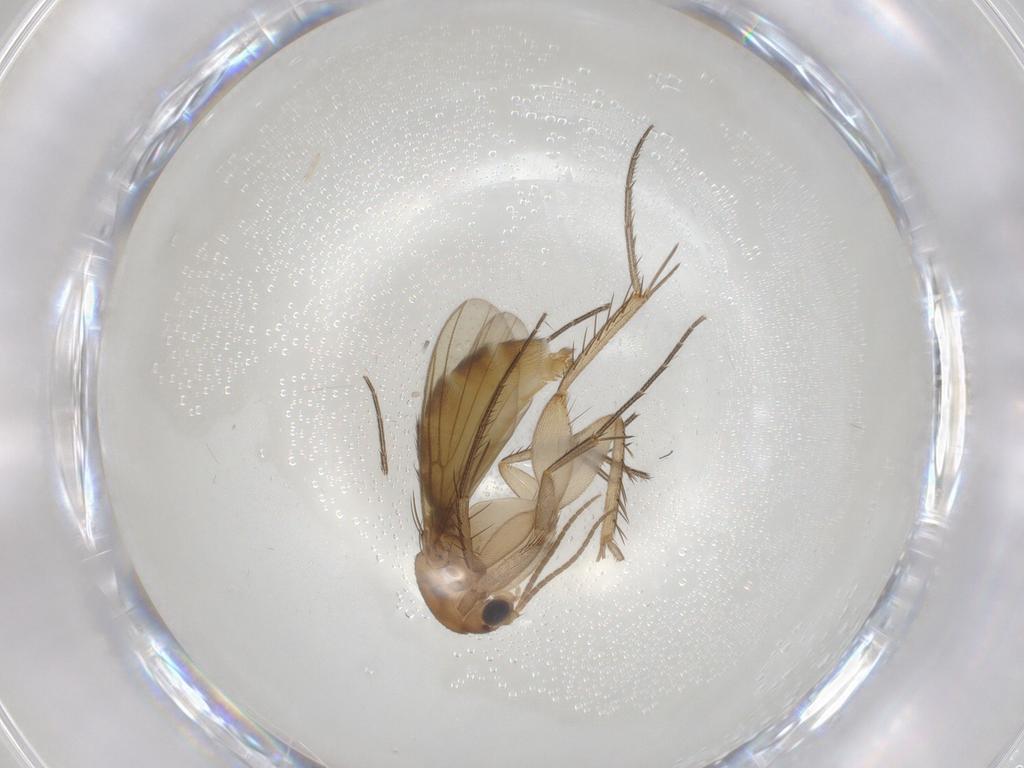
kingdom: Animalia
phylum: Arthropoda
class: Insecta
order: Diptera
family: Mycetophilidae
